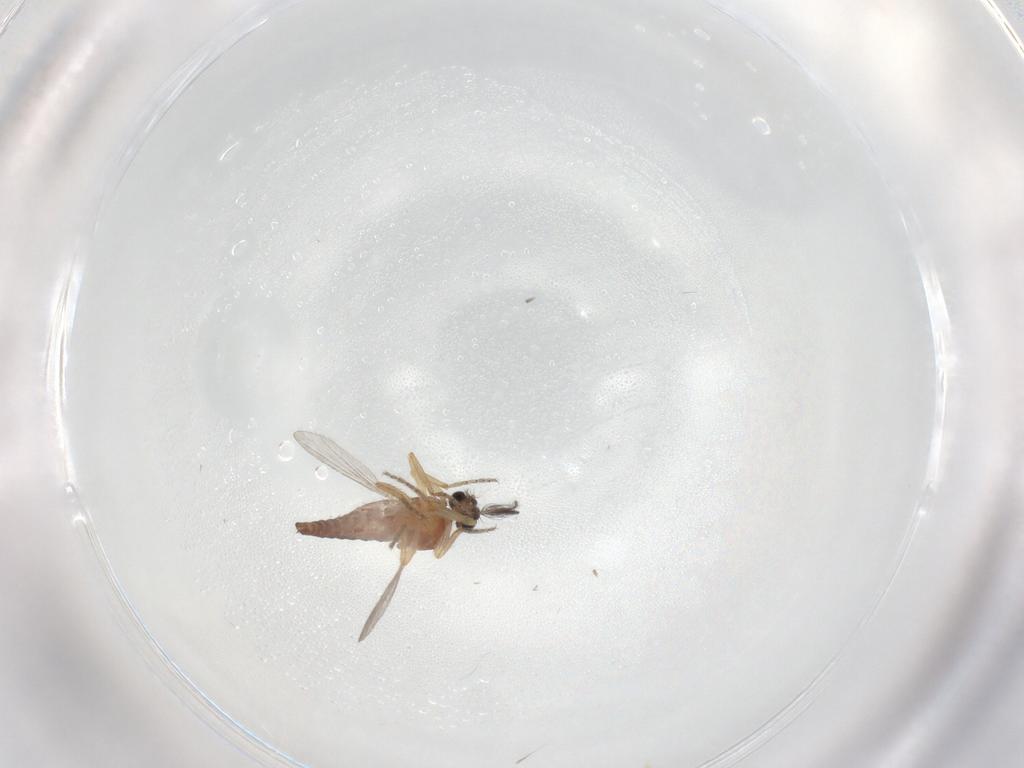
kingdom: Animalia
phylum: Arthropoda
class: Insecta
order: Diptera
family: Ceratopogonidae
